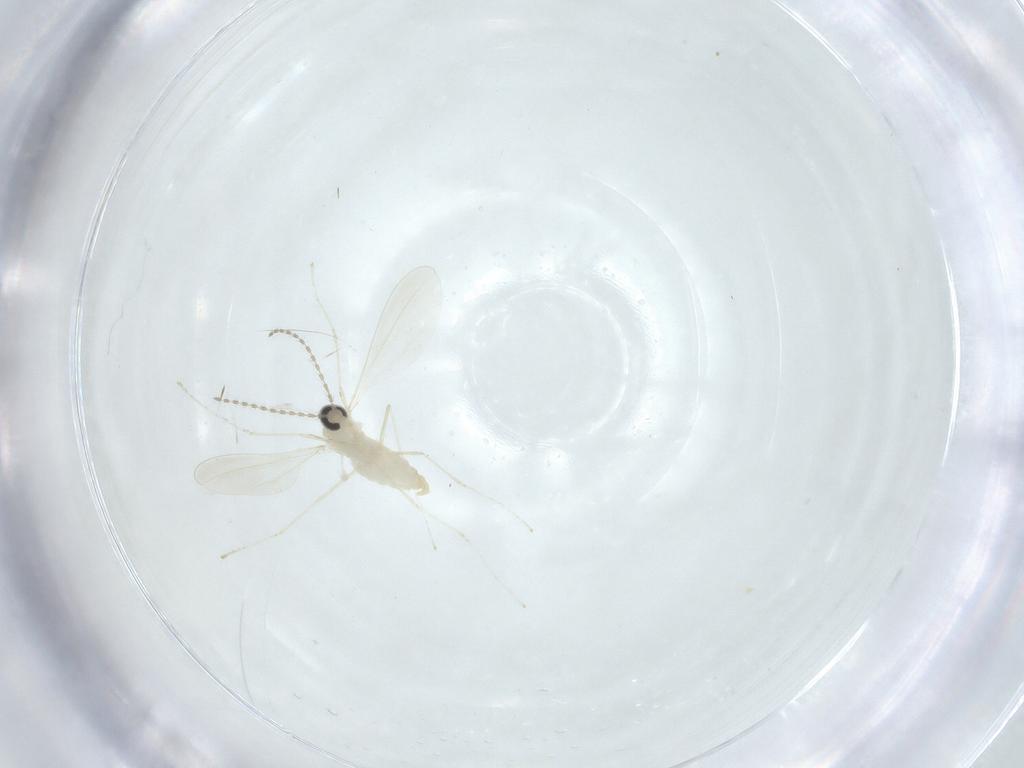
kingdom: Animalia
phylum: Arthropoda
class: Insecta
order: Diptera
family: Cecidomyiidae
